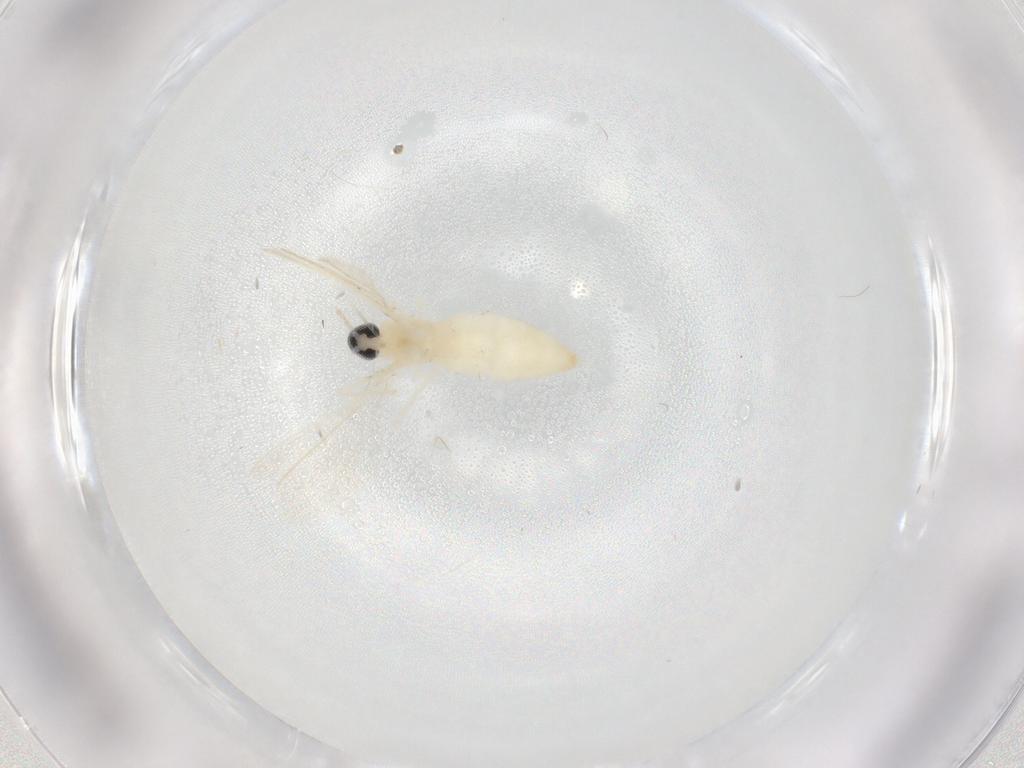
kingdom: Animalia
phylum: Arthropoda
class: Insecta
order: Diptera
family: Cecidomyiidae
